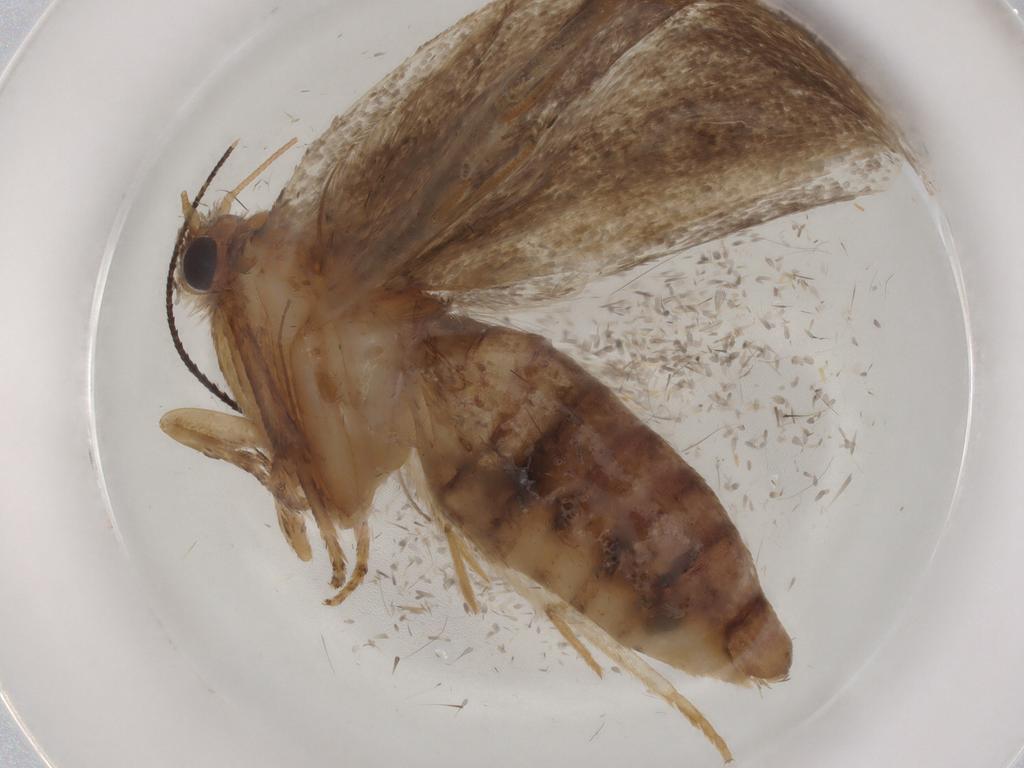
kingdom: Animalia
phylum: Arthropoda
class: Insecta
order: Lepidoptera
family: Tineidae
